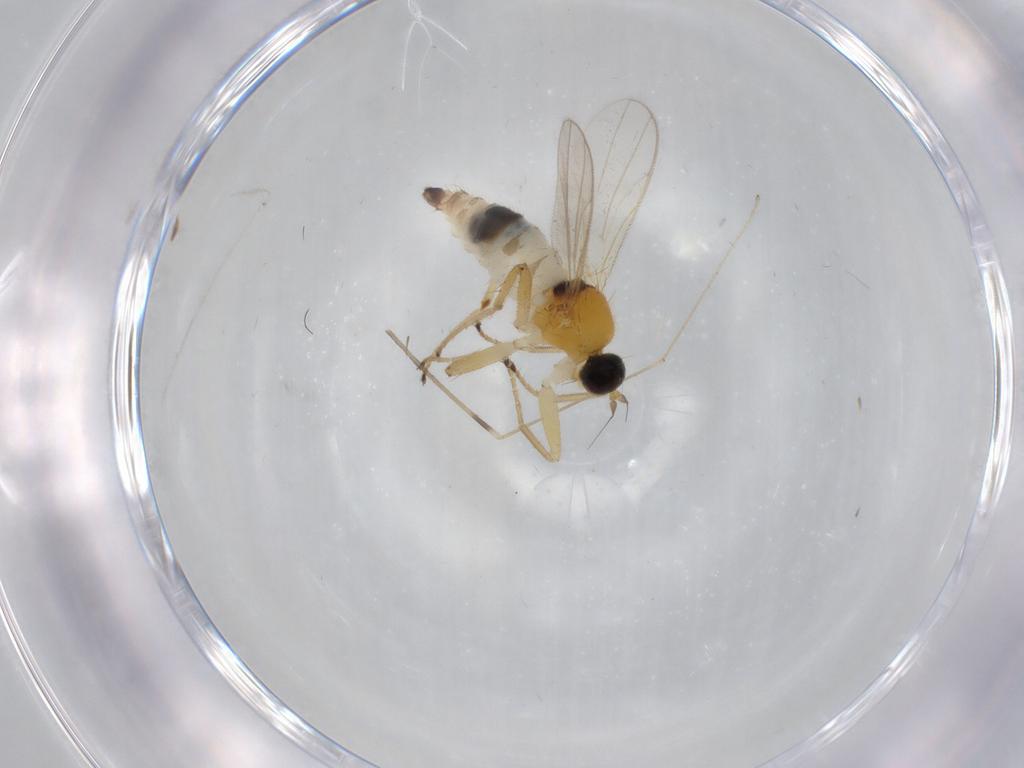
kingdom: Animalia
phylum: Arthropoda
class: Insecta
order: Diptera
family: Hybotidae
